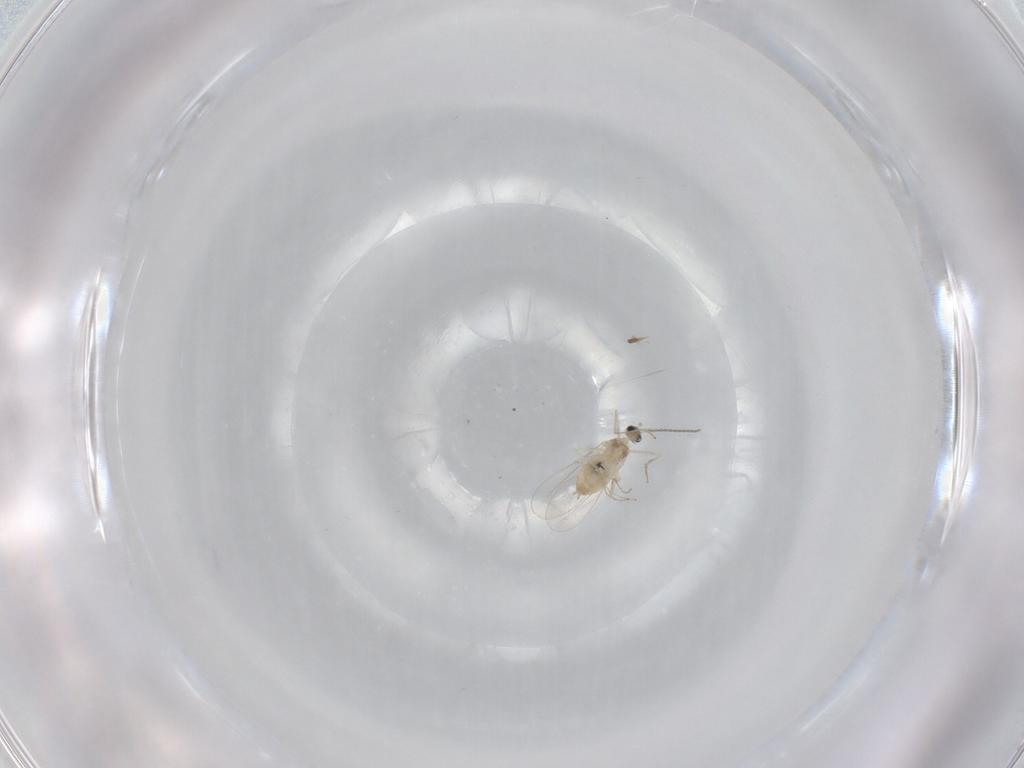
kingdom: Animalia
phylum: Arthropoda
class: Insecta
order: Diptera
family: Cecidomyiidae
